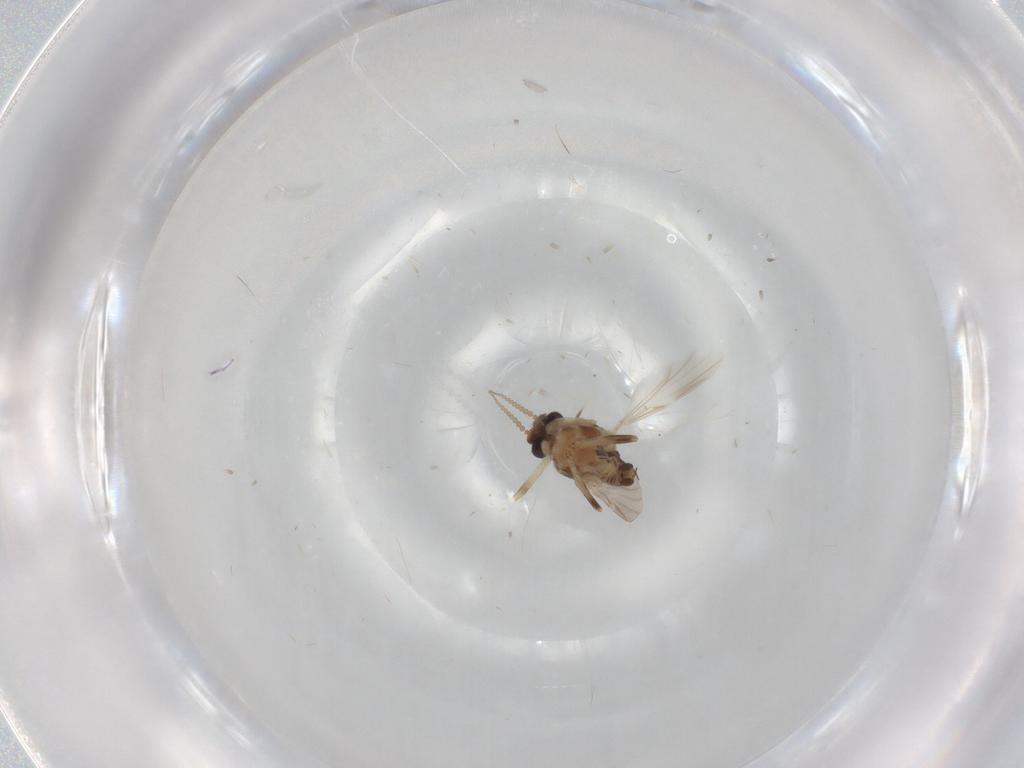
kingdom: Animalia
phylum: Arthropoda
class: Insecta
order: Diptera
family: Ceratopogonidae
